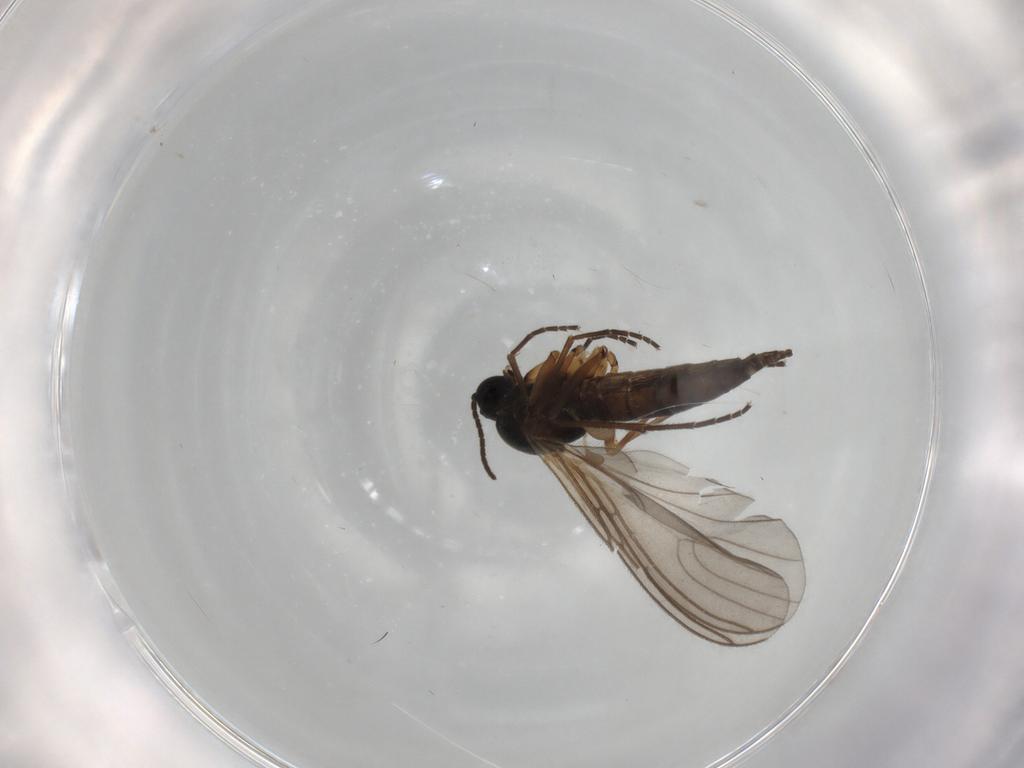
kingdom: Animalia
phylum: Arthropoda
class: Insecta
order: Diptera
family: Sciaridae
